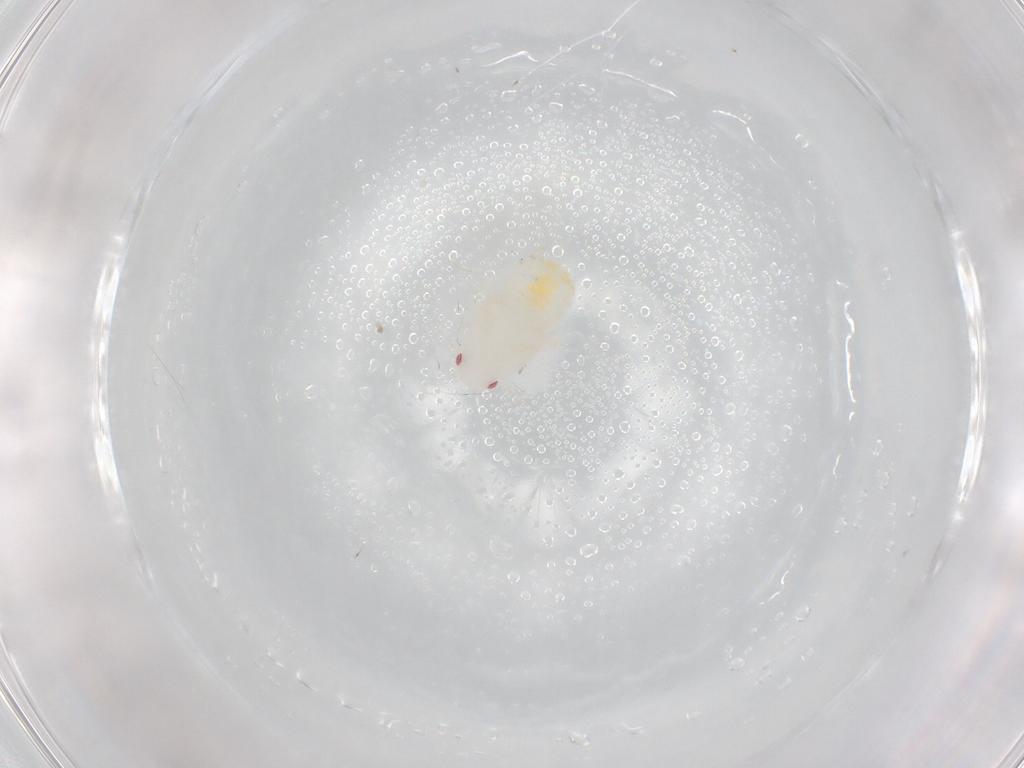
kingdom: Animalia
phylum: Arthropoda
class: Insecta
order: Hemiptera
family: Flatidae
